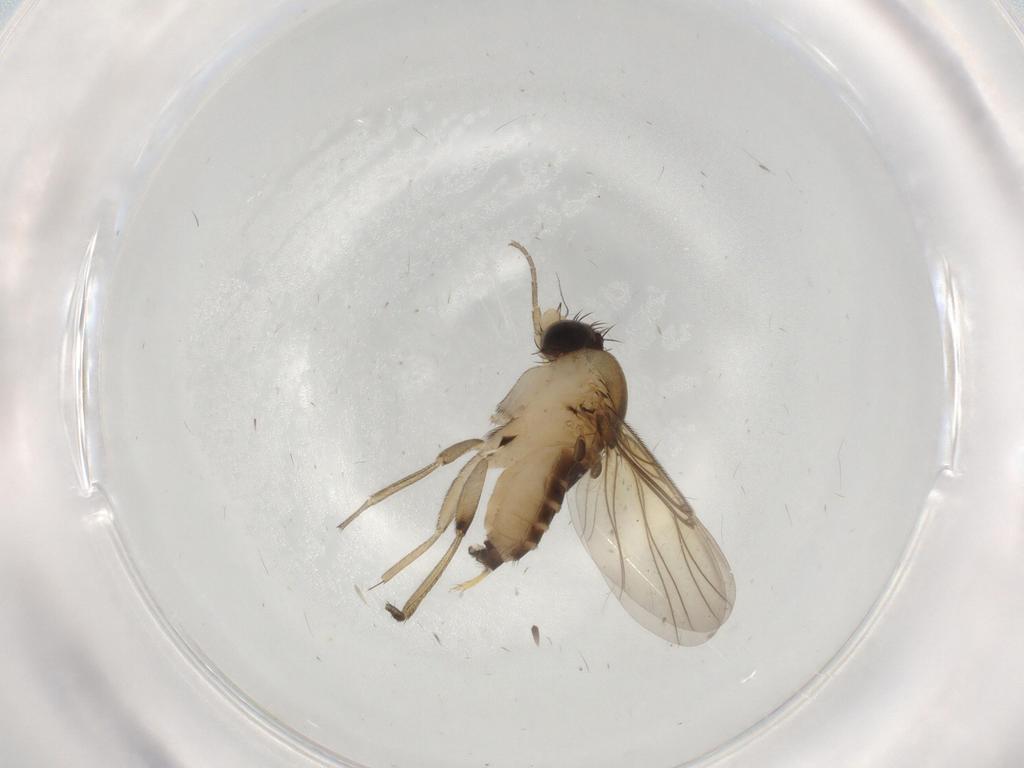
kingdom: Animalia
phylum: Arthropoda
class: Insecta
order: Diptera
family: Chironomidae
